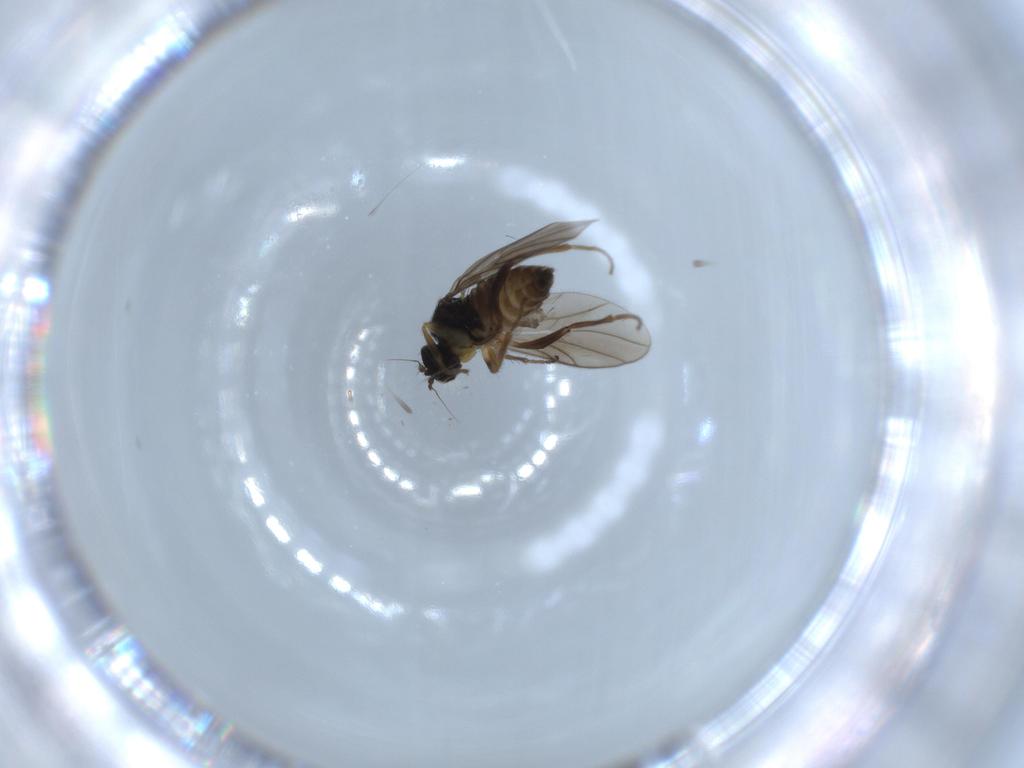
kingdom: Animalia
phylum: Arthropoda
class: Insecta
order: Diptera
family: Hybotidae
